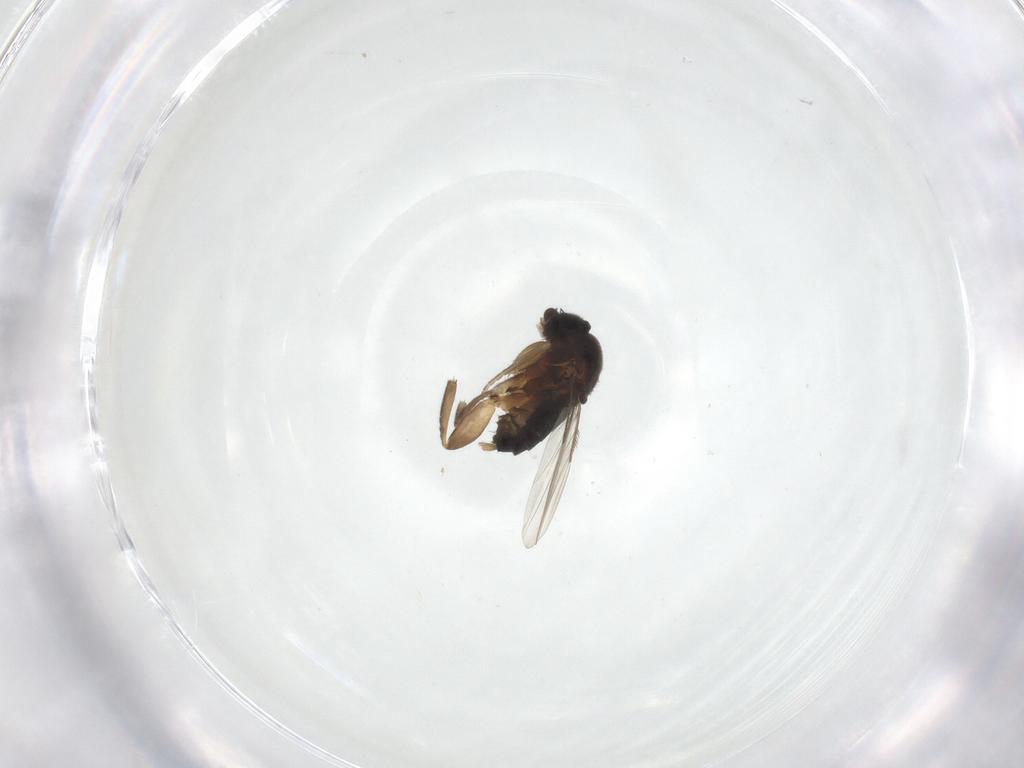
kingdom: Animalia
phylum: Arthropoda
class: Insecta
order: Diptera
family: Phoridae
